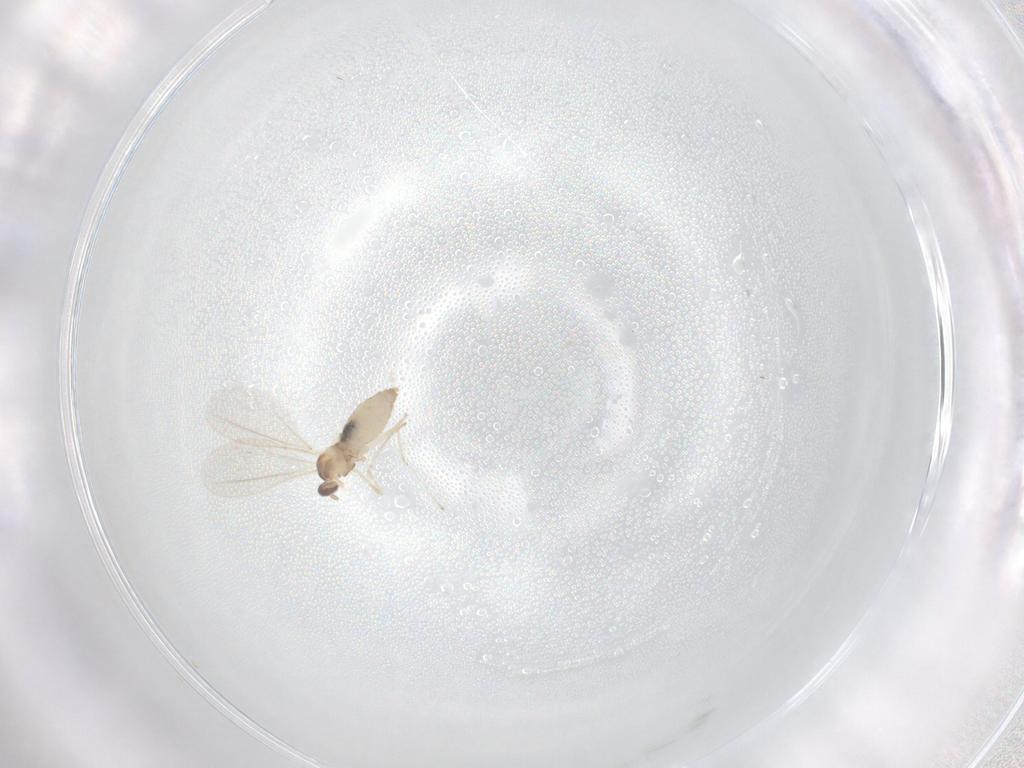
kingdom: Animalia
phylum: Arthropoda
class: Insecta
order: Diptera
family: Cecidomyiidae
